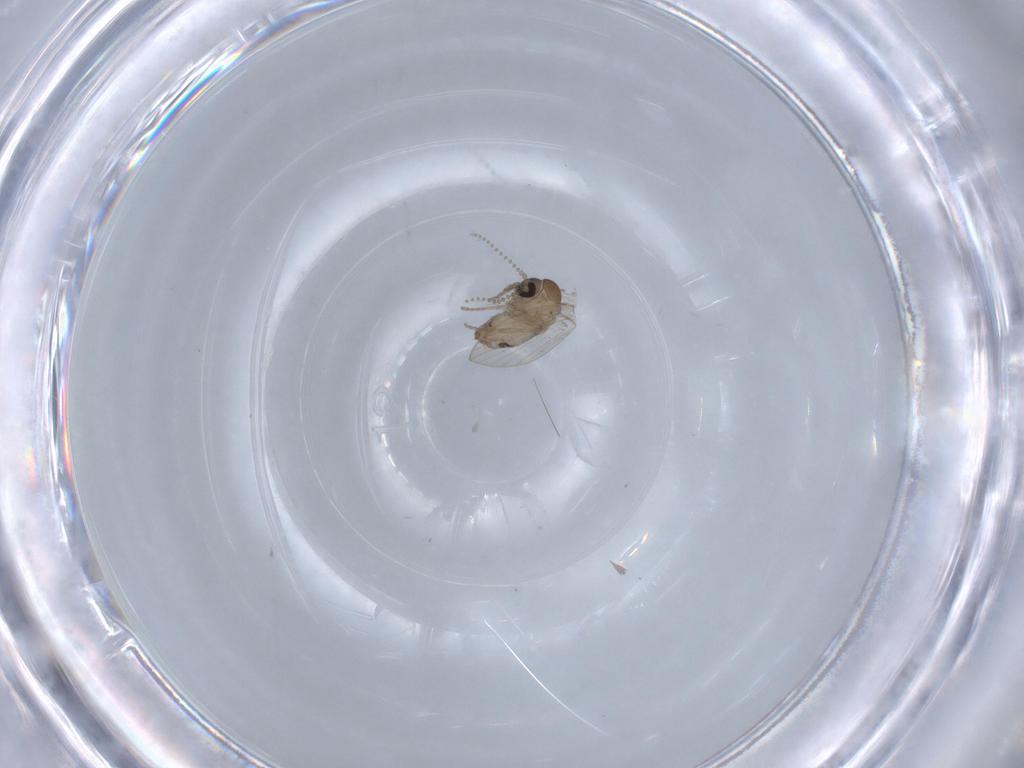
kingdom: Animalia
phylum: Arthropoda
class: Insecta
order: Diptera
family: Psychodidae
